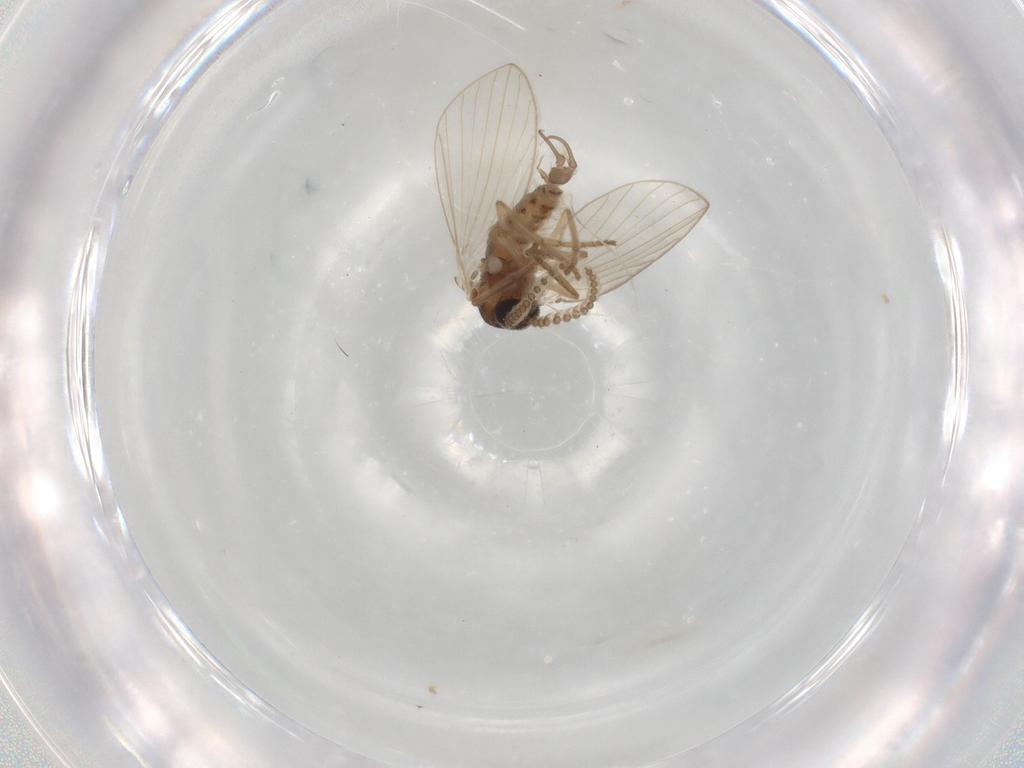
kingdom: Animalia
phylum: Arthropoda
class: Insecta
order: Diptera
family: Psychodidae
